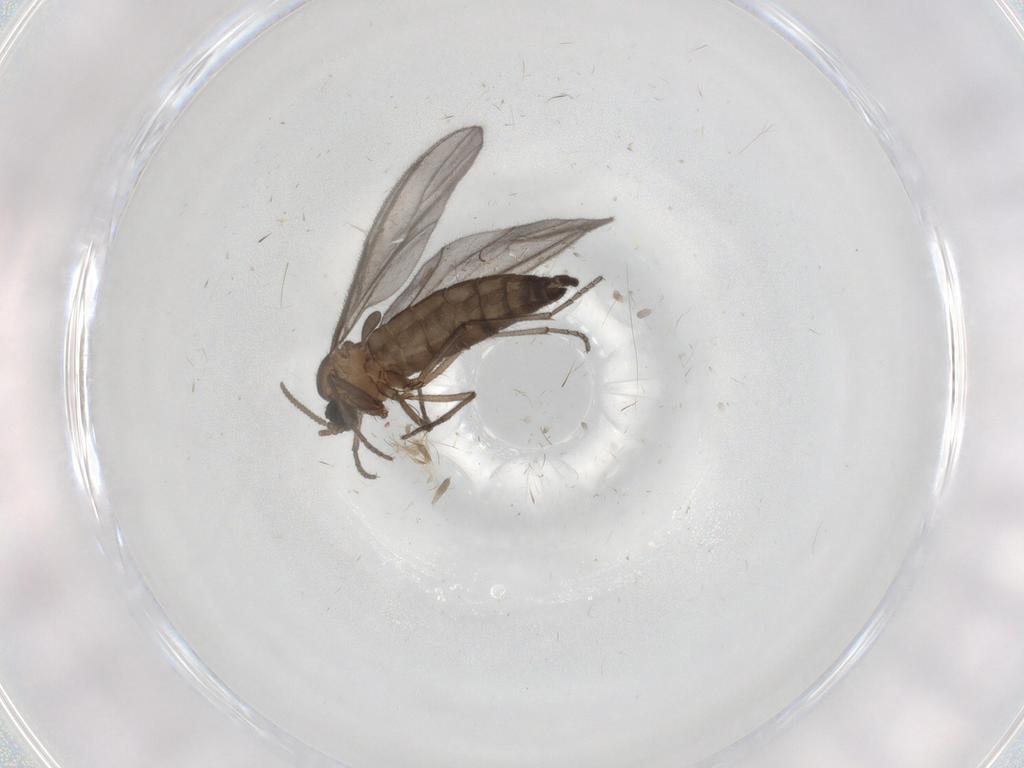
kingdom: Animalia
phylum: Arthropoda
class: Insecta
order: Diptera
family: Sciaridae
